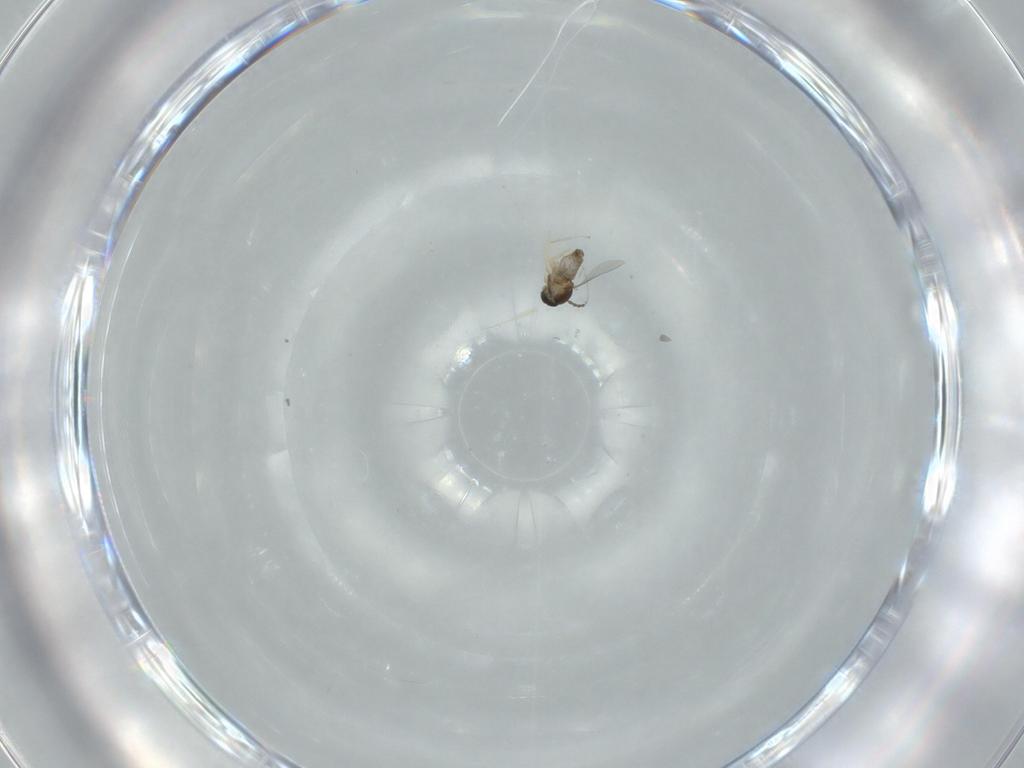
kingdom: Animalia
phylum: Arthropoda
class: Insecta
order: Diptera
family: Cecidomyiidae
